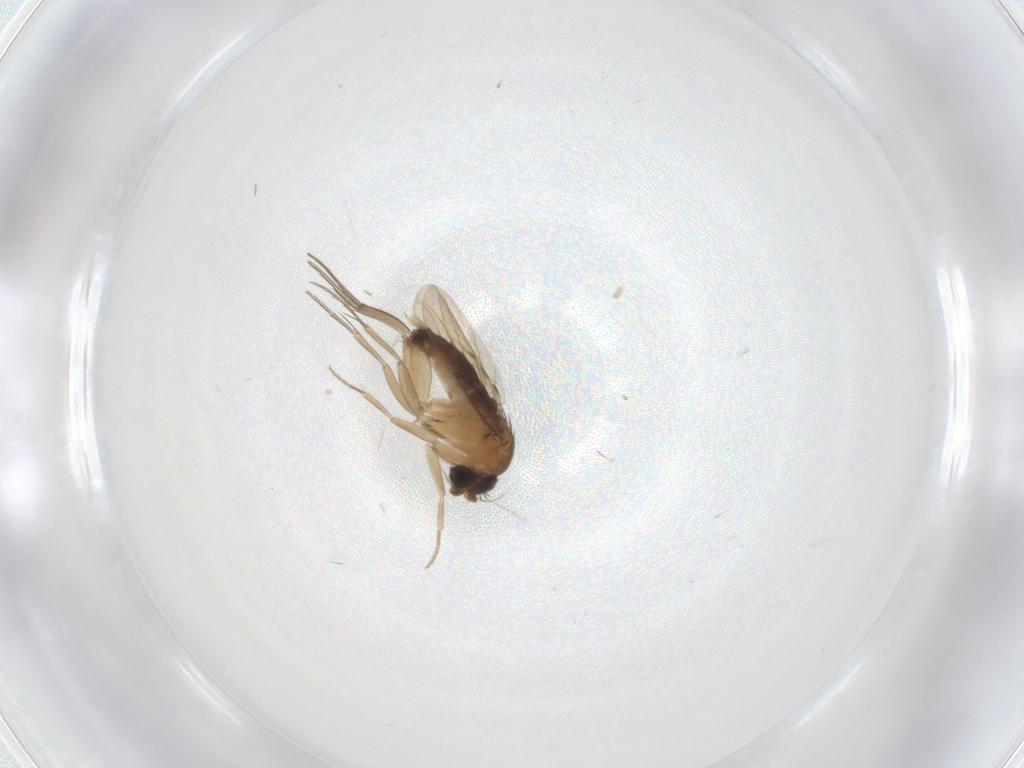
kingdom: Animalia
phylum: Arthropoda
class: Insecta
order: Diptera
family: Phoridae
